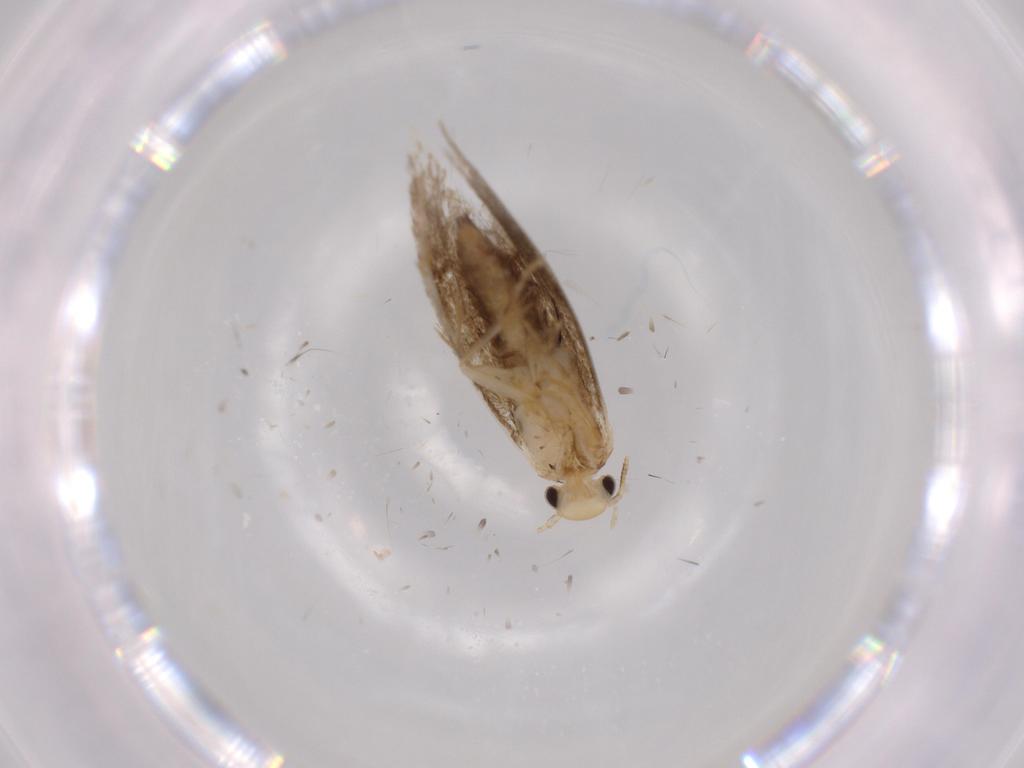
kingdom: Animalia
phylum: Arthropoda
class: Insecta
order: Lepidoptera
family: Tineidae
